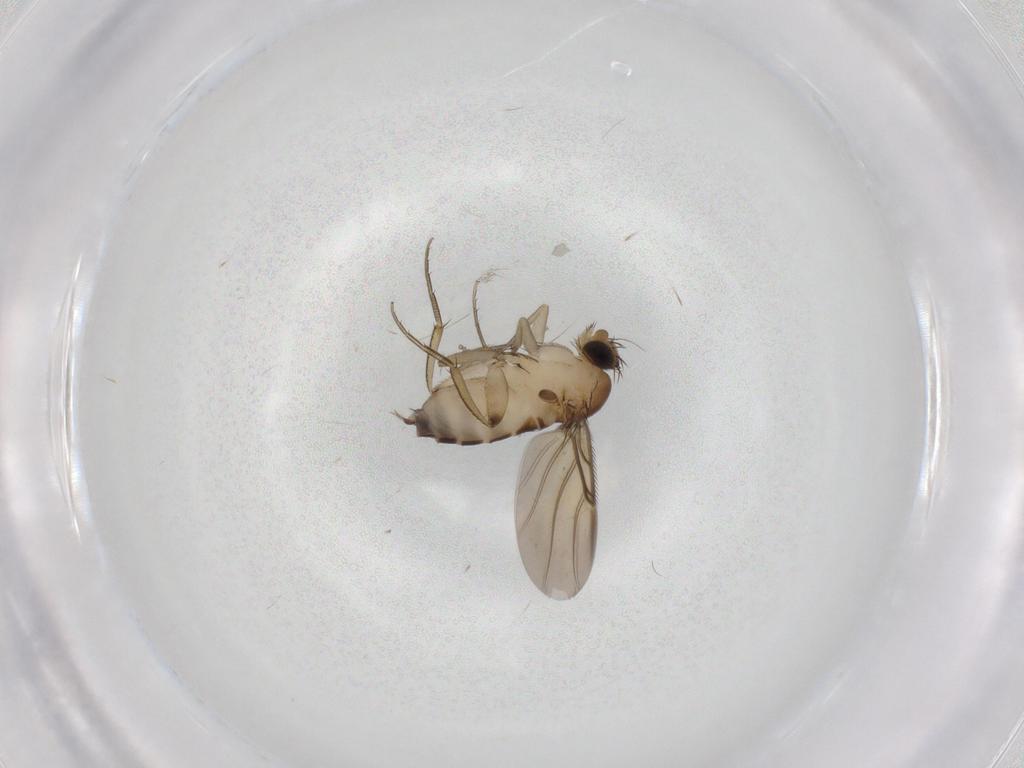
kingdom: Animalia
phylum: Arthropoda
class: Insecta
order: Diptera
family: Phoridae
